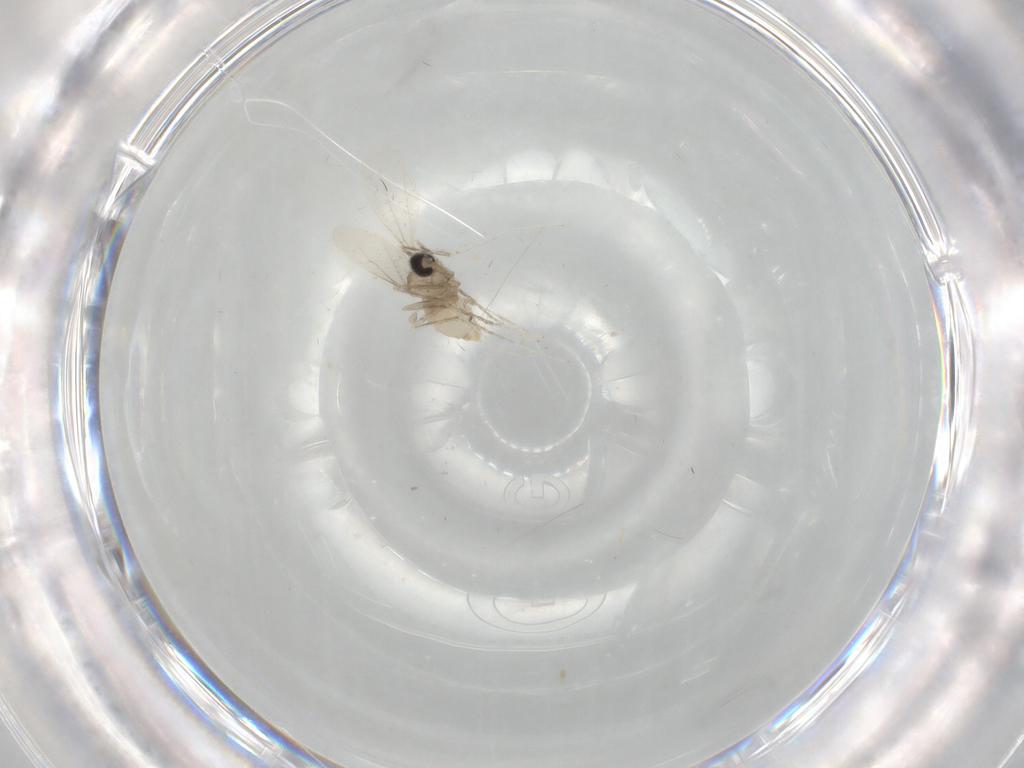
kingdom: Animalia
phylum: Arthropoda
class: Insecta
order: Diptera
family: Cecidomyiidae
